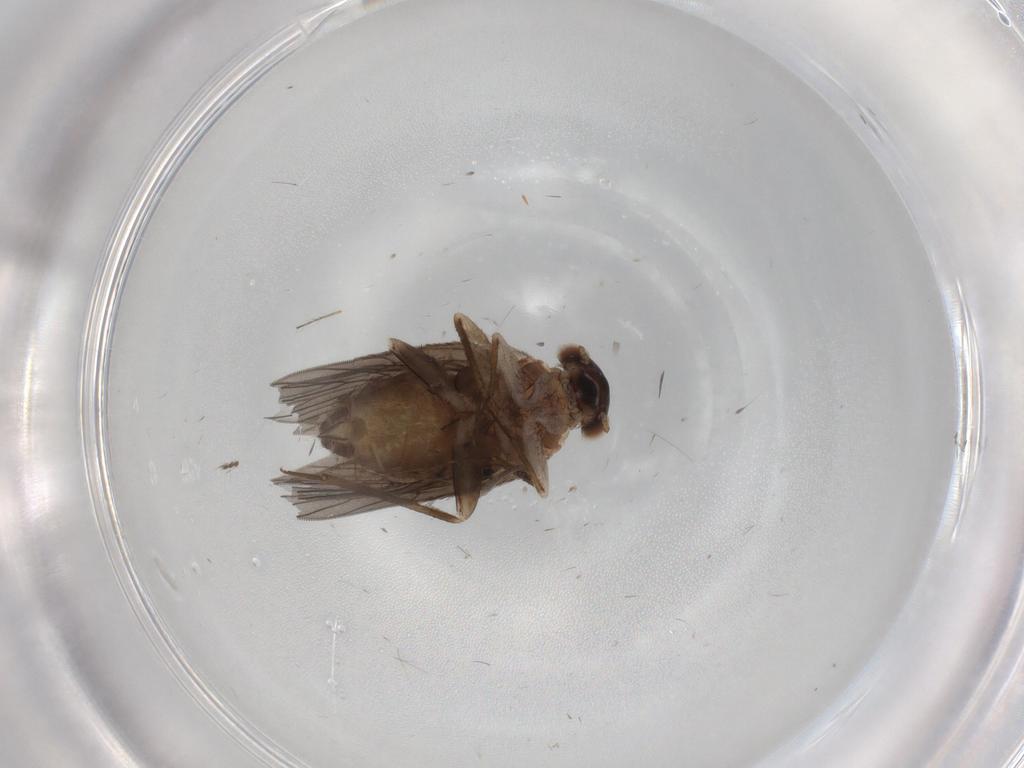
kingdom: Animalia
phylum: Arthropoda
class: Insecta
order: Psocodea
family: Lepidopsocidae
